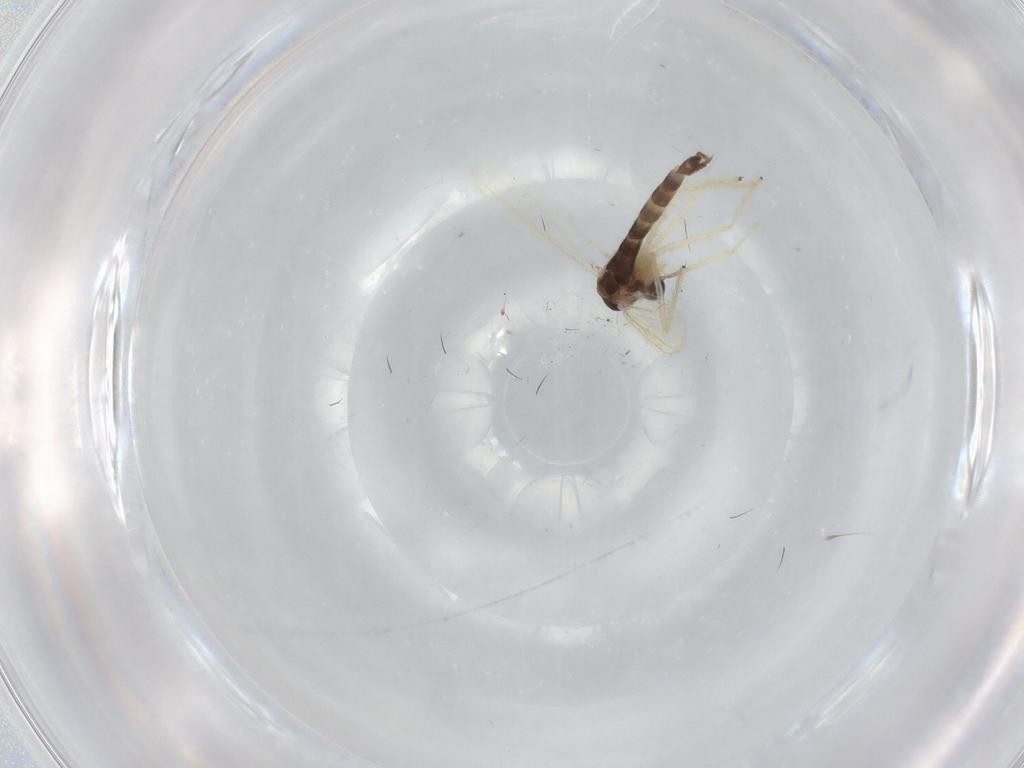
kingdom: Animalia
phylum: Arthropoda
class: Insecta
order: Diptera
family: Chironomidae
